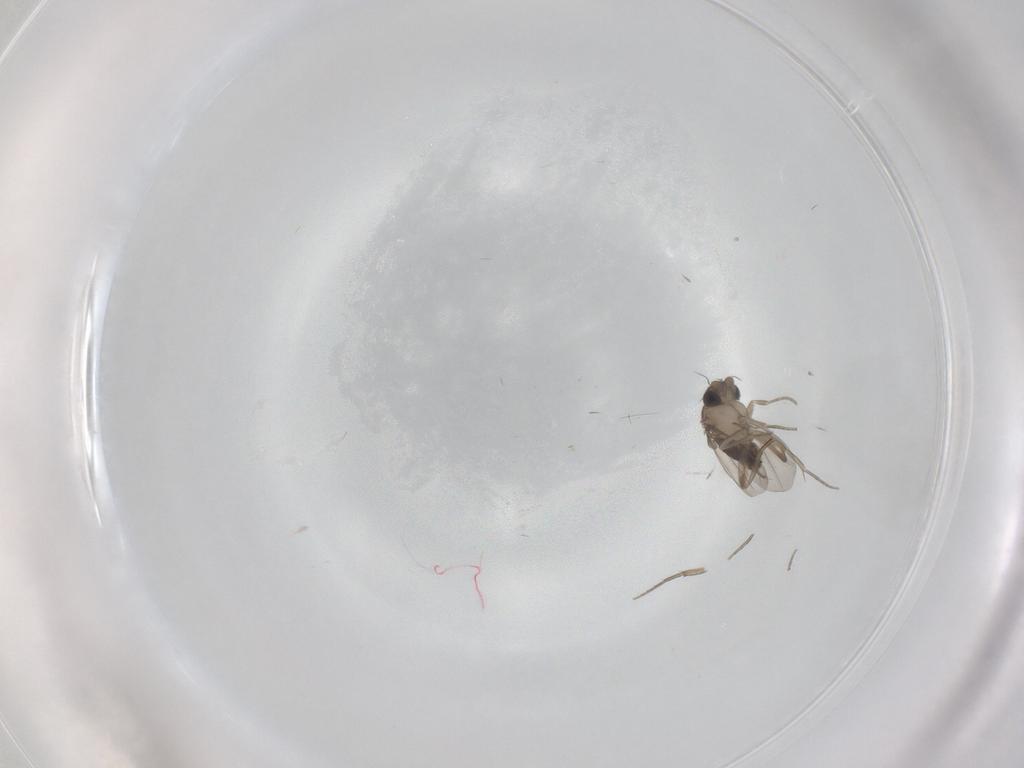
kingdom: Animalia
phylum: Arthropoda
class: Insecta
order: Diptera
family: Phoridae
